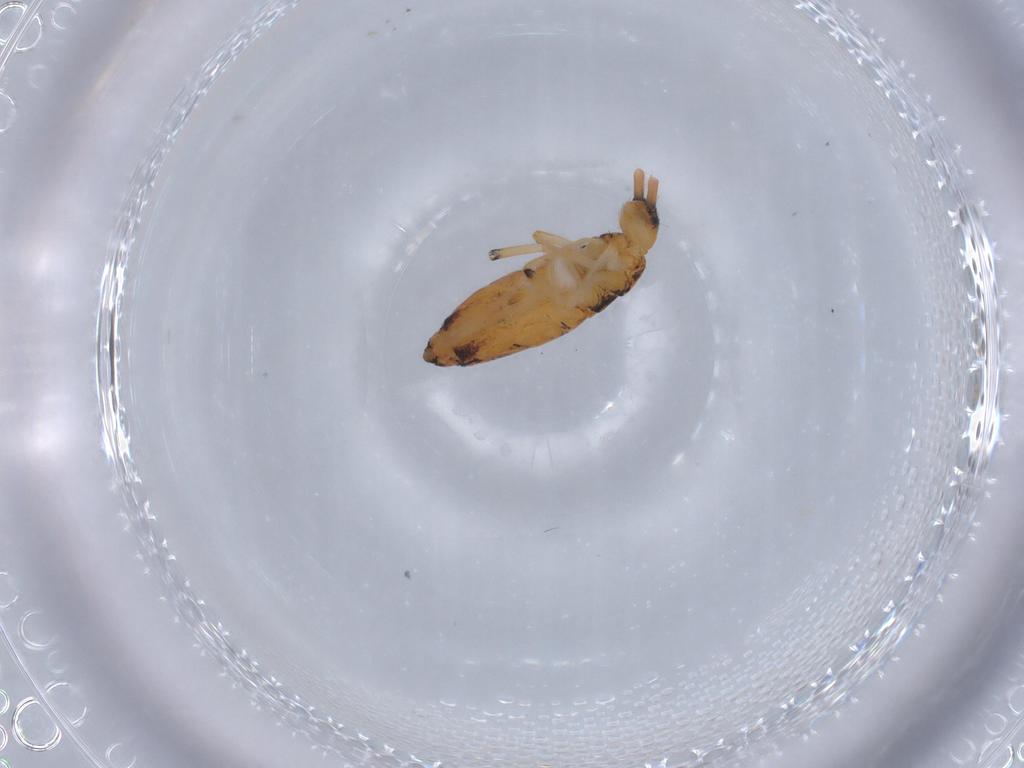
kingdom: Animalia
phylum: Arthropoda
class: Collembola
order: Entomobryomorpha
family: Entomobryidae
